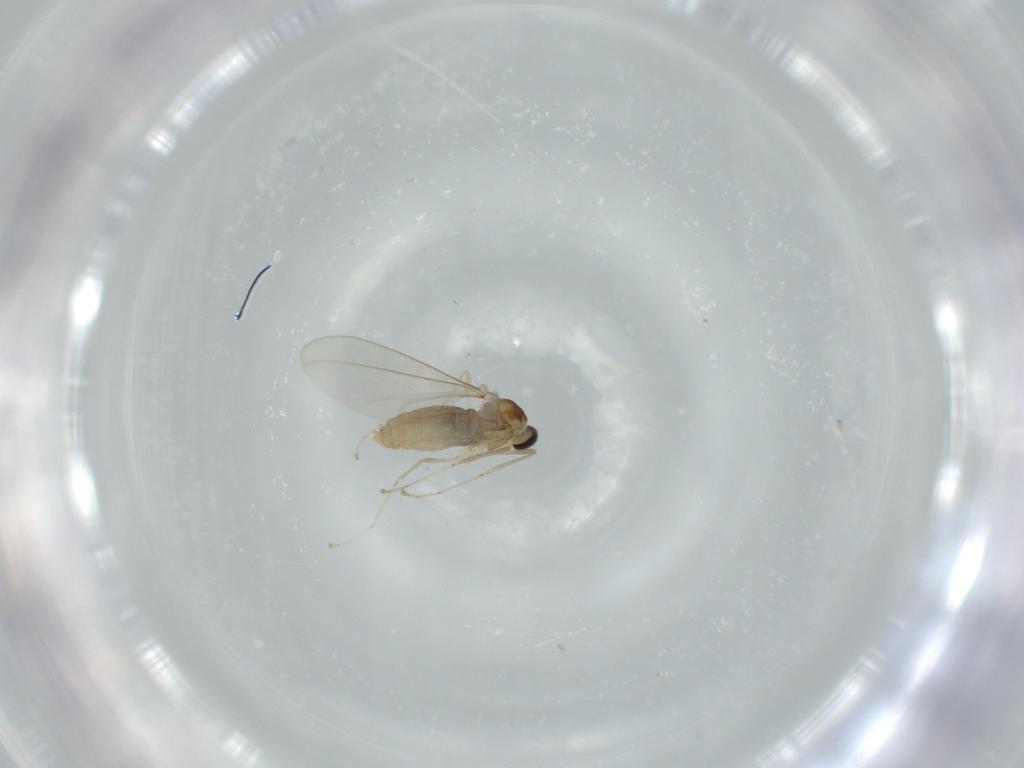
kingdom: Animalia
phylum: Arthropoda
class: Insecta
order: Diptera
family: Cecidomyiidae
